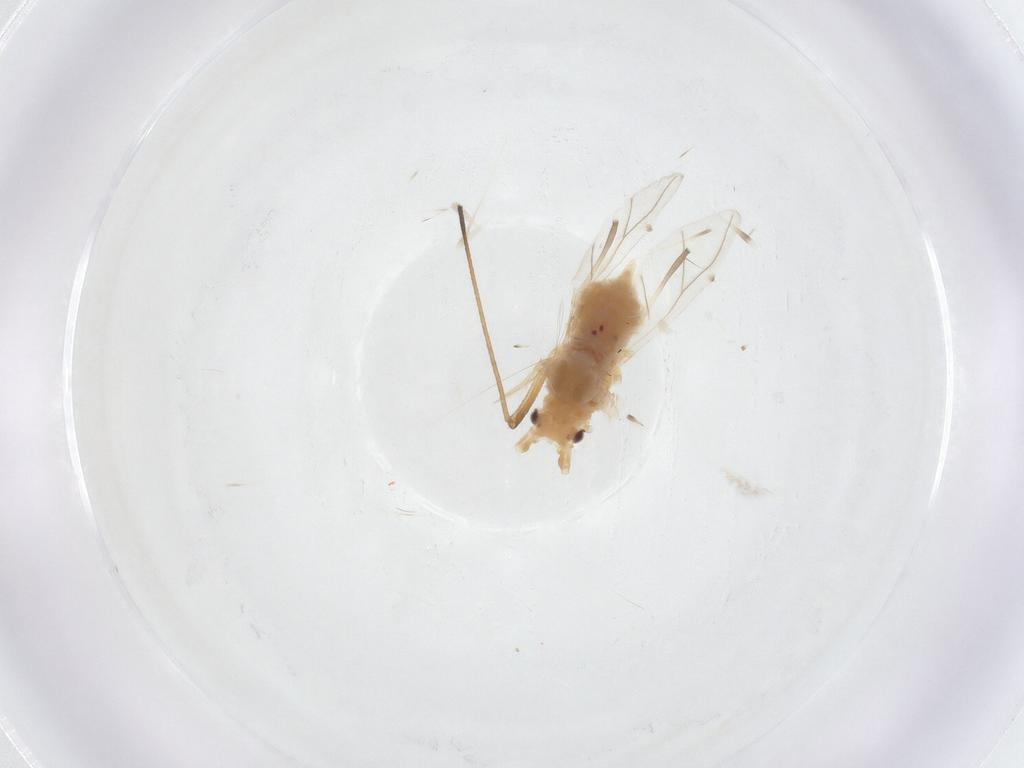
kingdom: Animalia
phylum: Arthropoda
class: Insecta
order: Hemiptera
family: Aphididae
